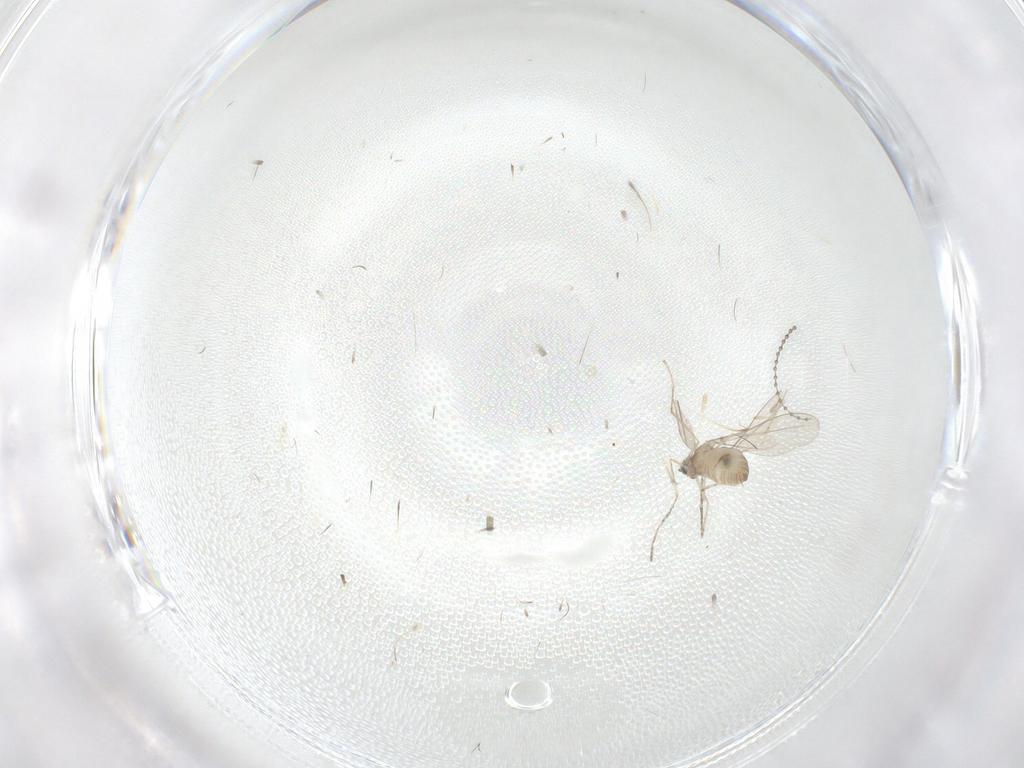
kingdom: Animalia
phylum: Arthropoda
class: Insecta
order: Diptera
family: Cecidomyiidae
